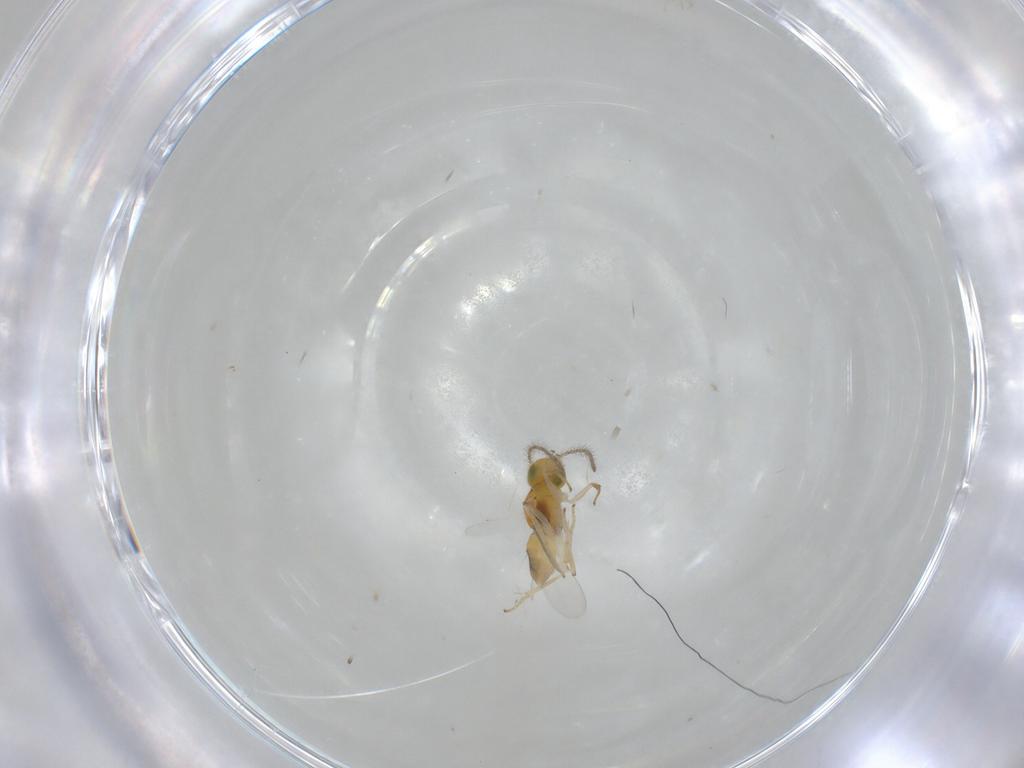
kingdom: Animalia
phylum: Arthropoda
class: Insecta
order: Hymenoptera
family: Encyrtidae
